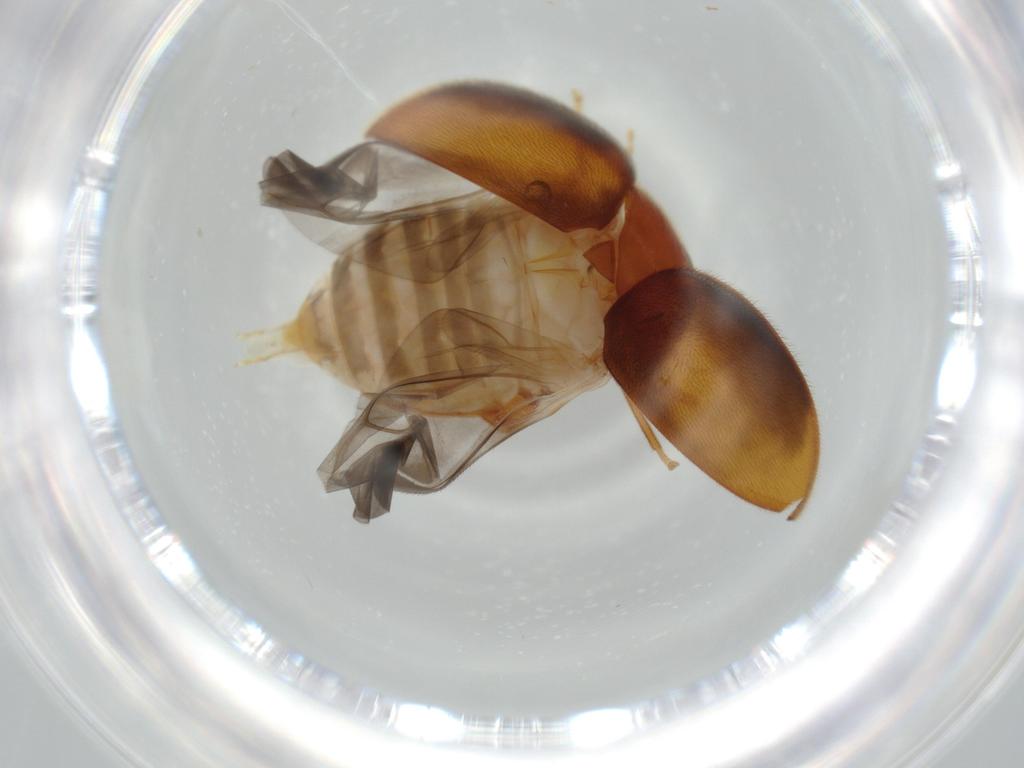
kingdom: Animalia
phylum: Arthropoda
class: Insecta
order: Coleoptera
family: Scirtidae
